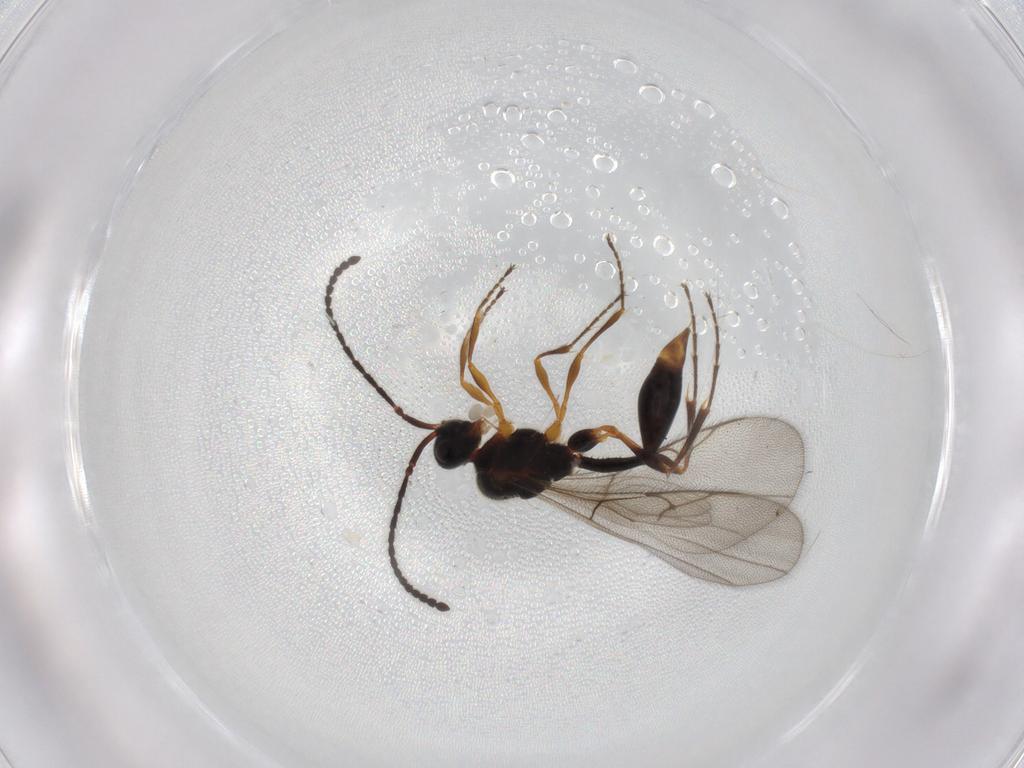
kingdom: Animalia
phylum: Arthropoda
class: Insecta
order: Hymenoptera
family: Diapriidae
